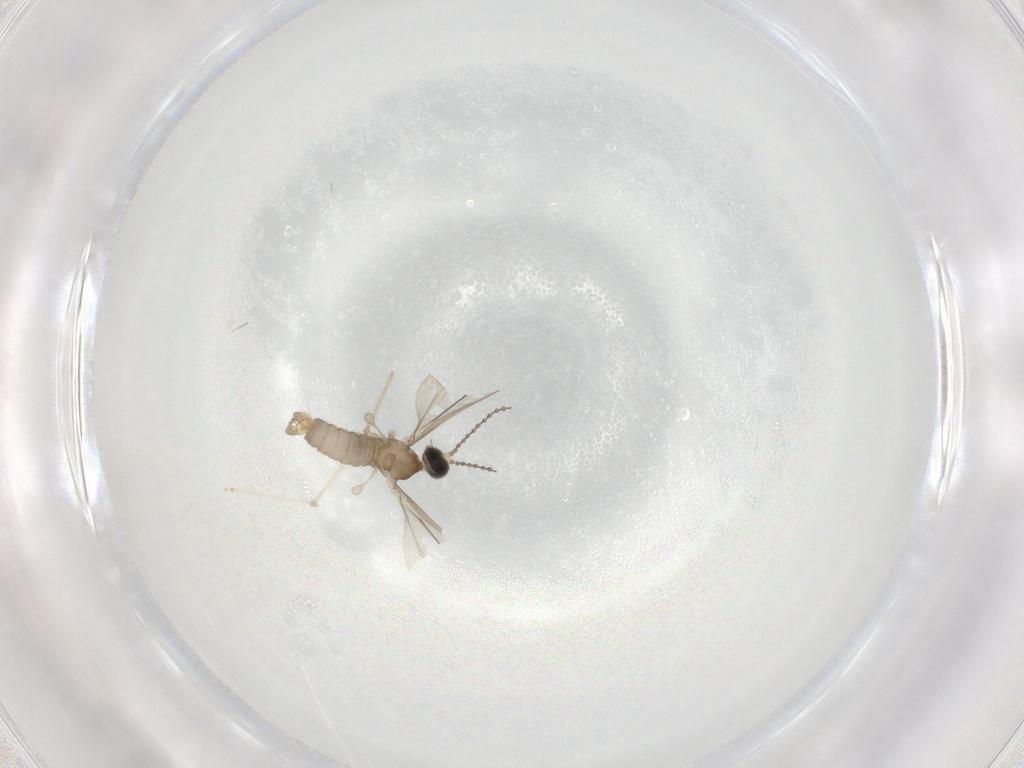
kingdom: Animalia
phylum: Arthropoda
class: Insecta
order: Diptera
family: Cecidomyiidae
